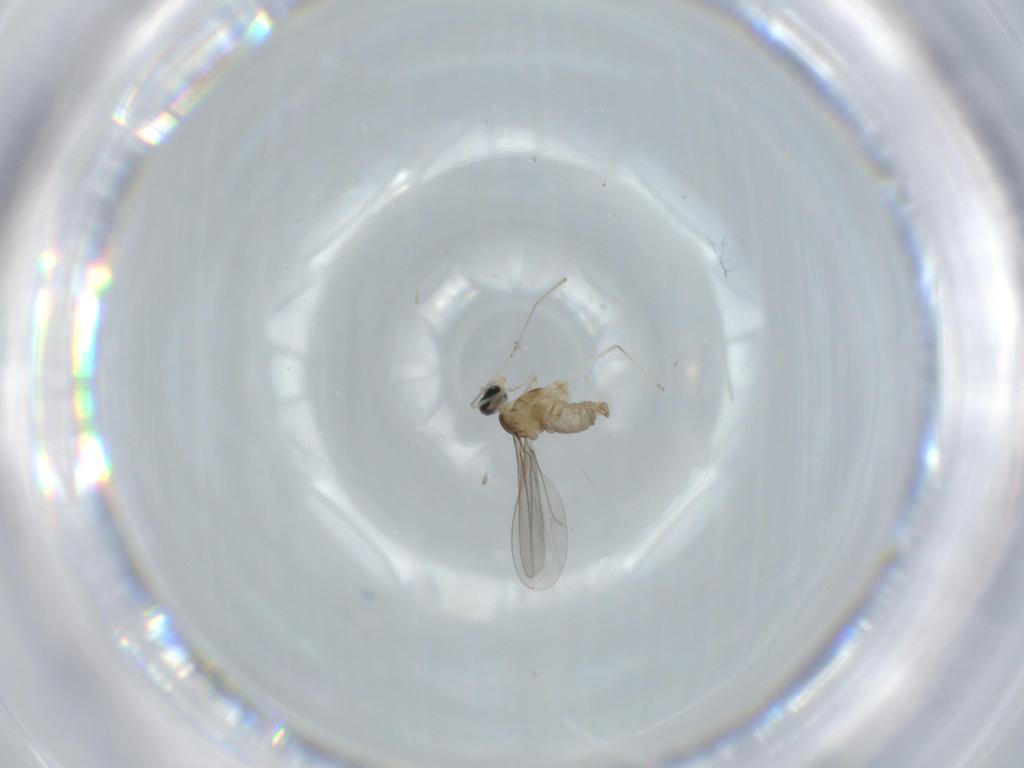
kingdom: Animalia
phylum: Arthropoda
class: Insecta
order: Diptera
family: Cecidomyiidae
